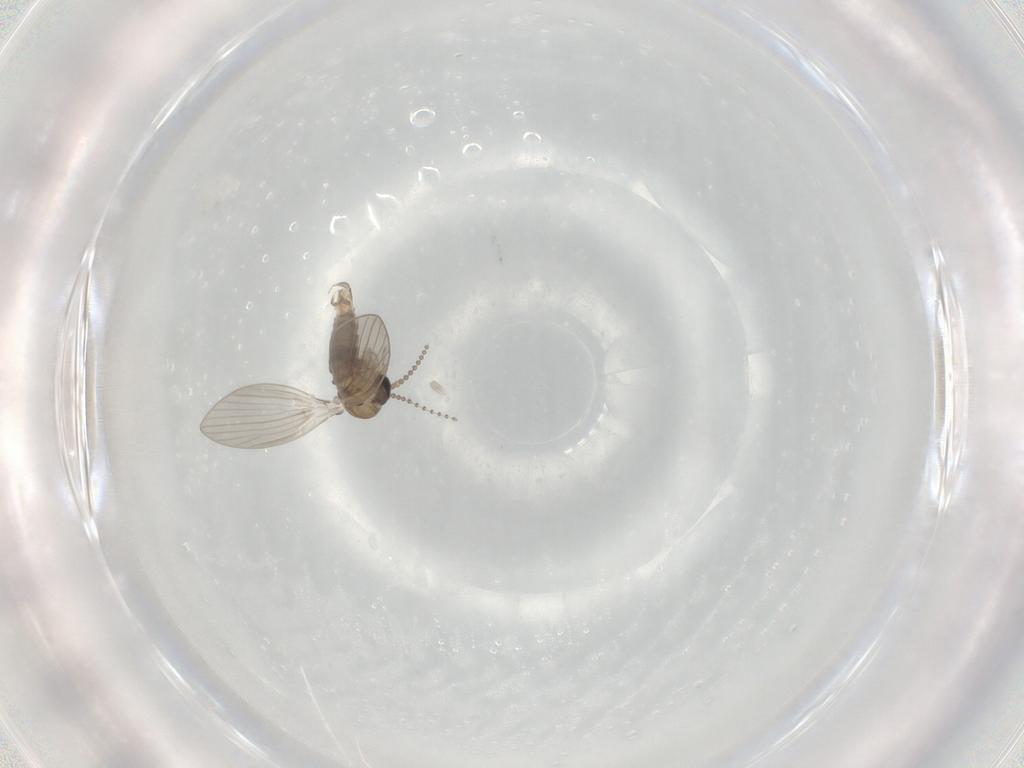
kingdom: Animalia
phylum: Arthropoda
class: Insecta
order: Diptera
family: Psychodidae
